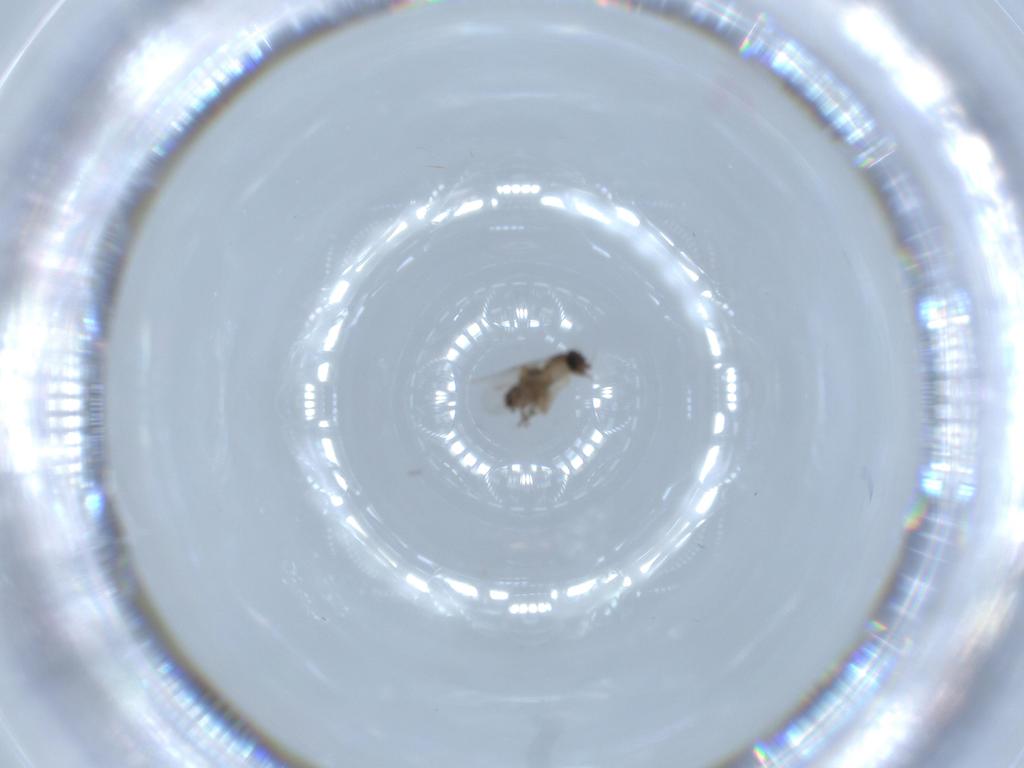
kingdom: Animalia
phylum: Arthropoda
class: Insecta
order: Diptera
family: Phoridae
